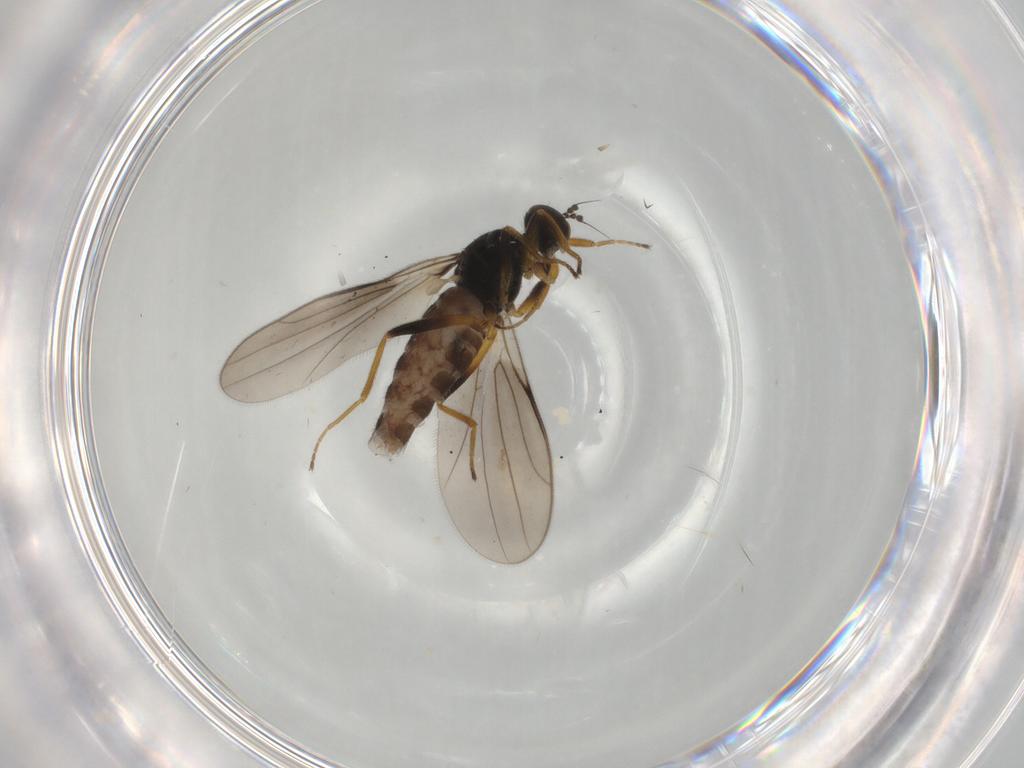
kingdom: Animalia
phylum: Arthropoda
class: Insecta
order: Diptera
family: Hybotidae
